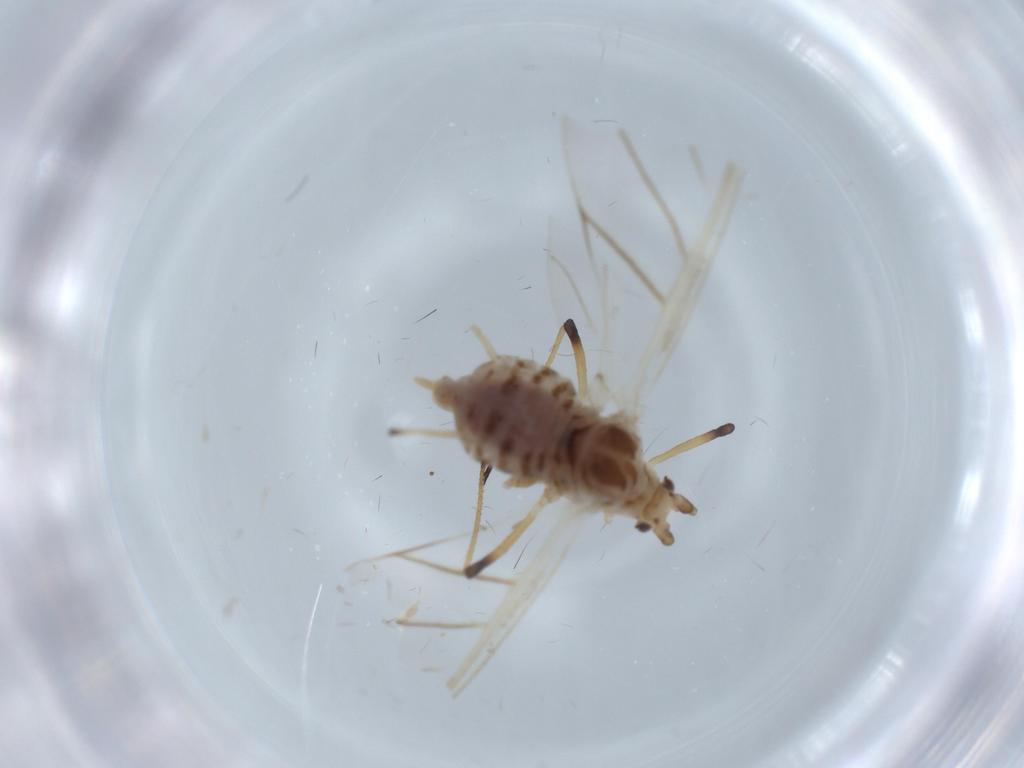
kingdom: Animalia
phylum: Arthropoda
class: Insecta
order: Hemiptera
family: Aphididae
